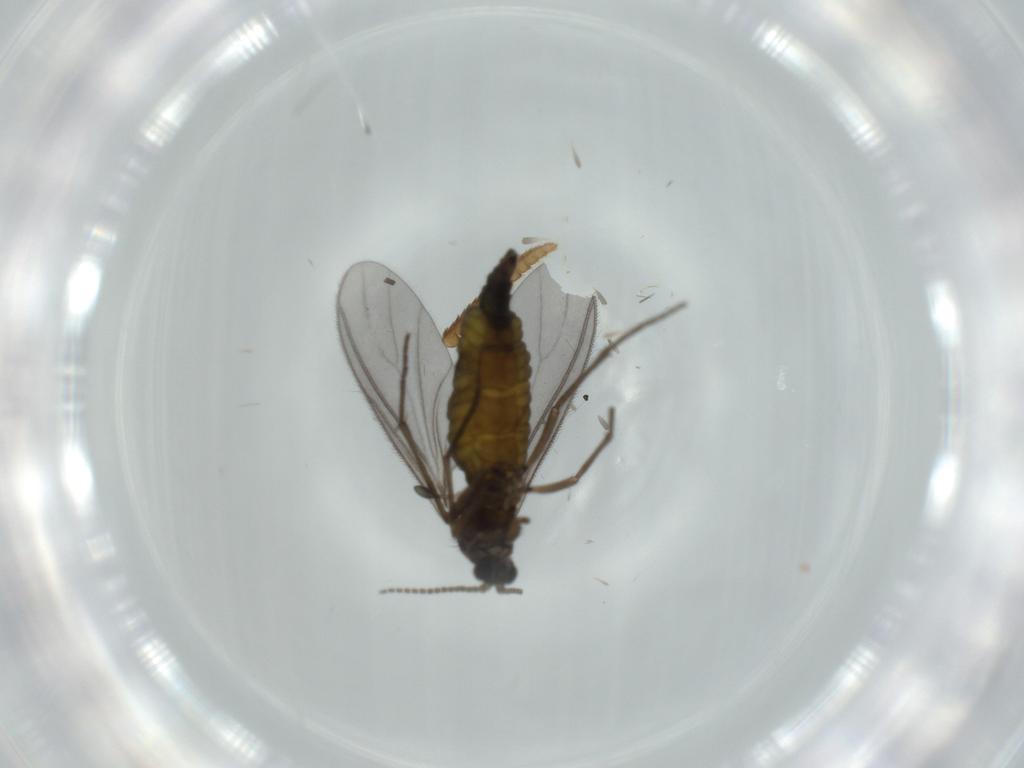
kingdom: Animalia
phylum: Arthropoda
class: Insecta
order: Diptera
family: Sciaridae
